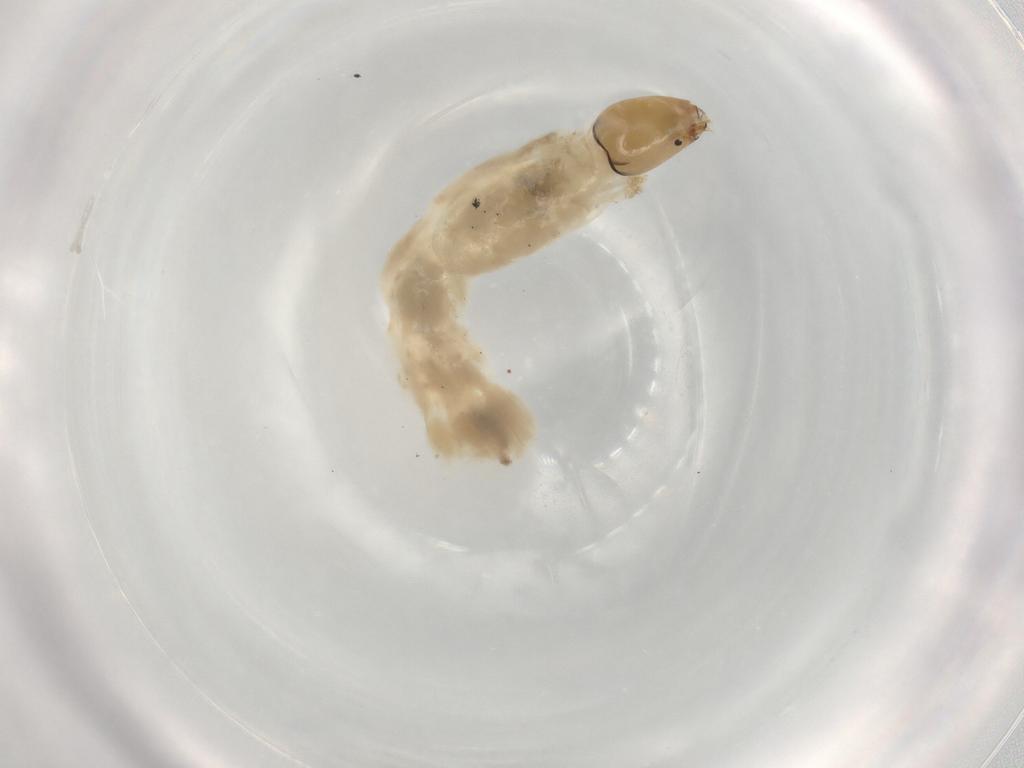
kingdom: Animalia
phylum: Arthropoda
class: Insecta
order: Diptera
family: Chironomidae
